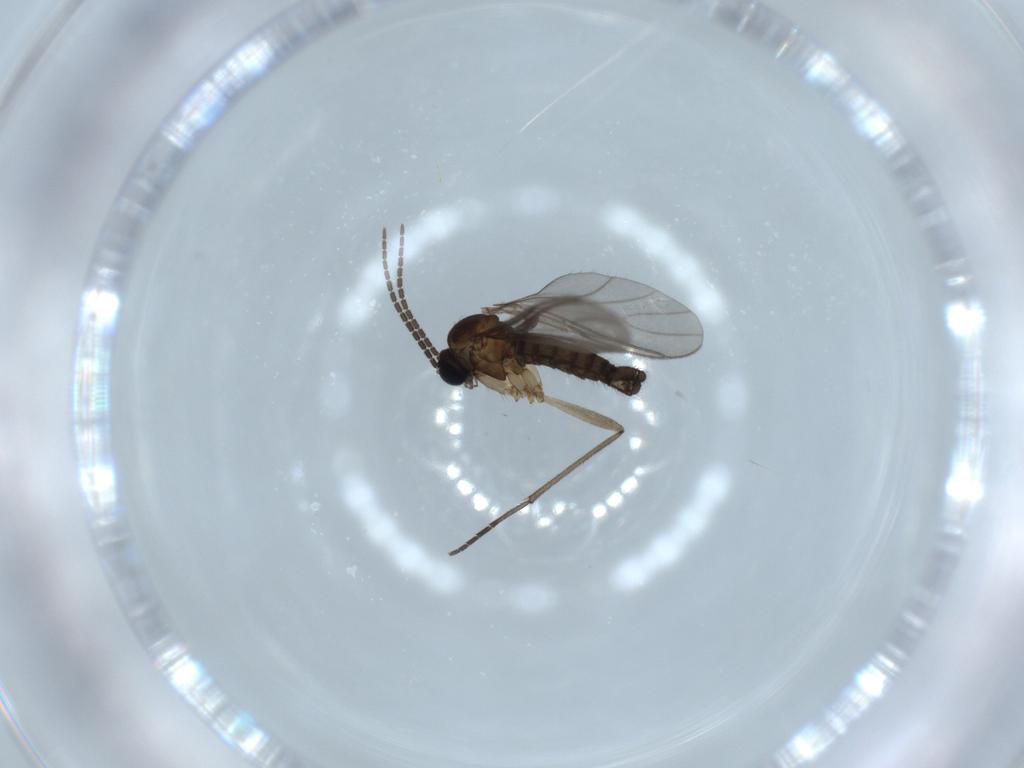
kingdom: Animalia
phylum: Arthropoda
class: Insecta
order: Diptera
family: Sciaridae
